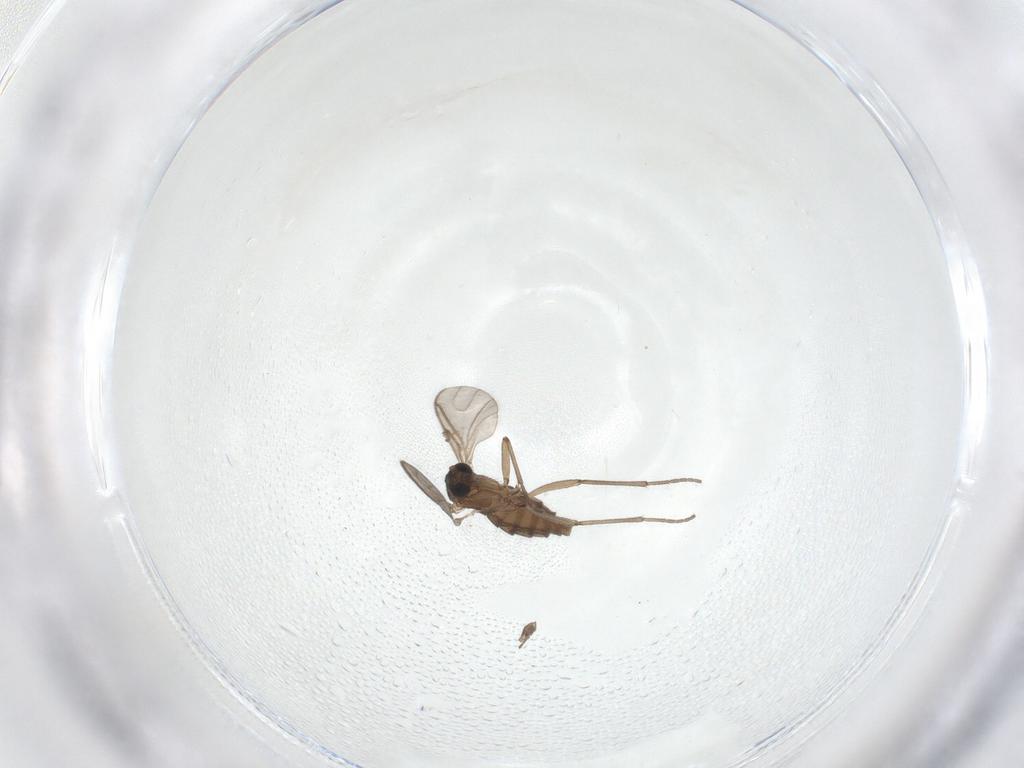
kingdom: Animalia
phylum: Arthropoda
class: Insecta
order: Diptera
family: Sciaridae
